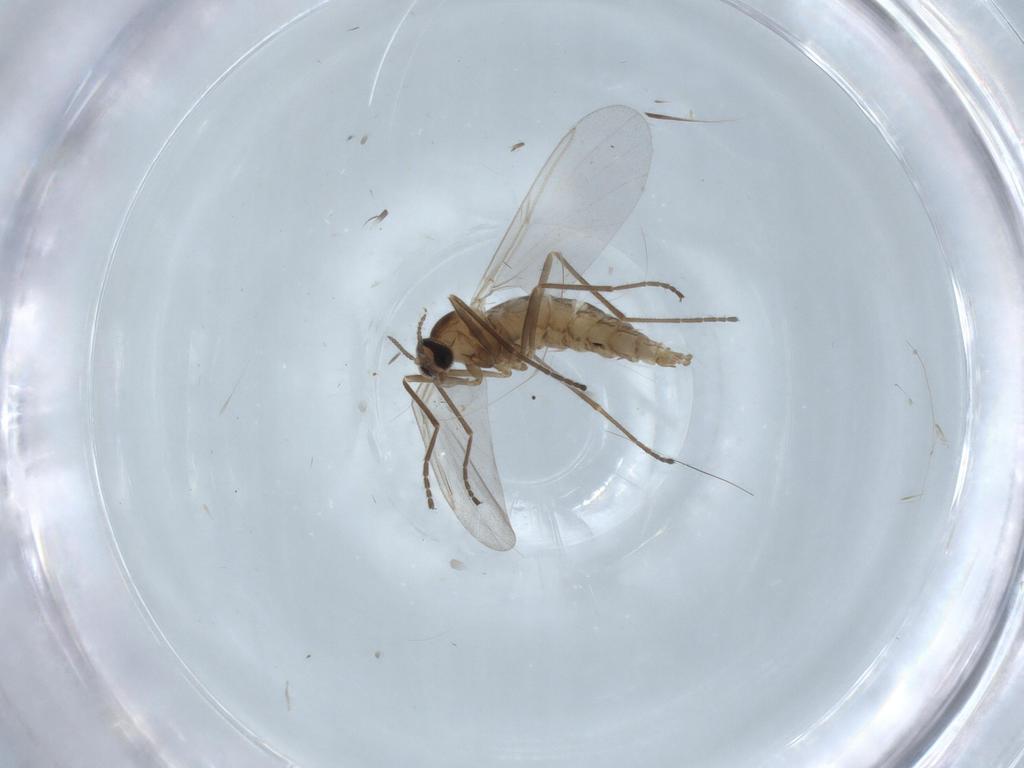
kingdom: Animalia
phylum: Arthropoda
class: Insecta
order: Diptera
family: Cecidomyiidae
